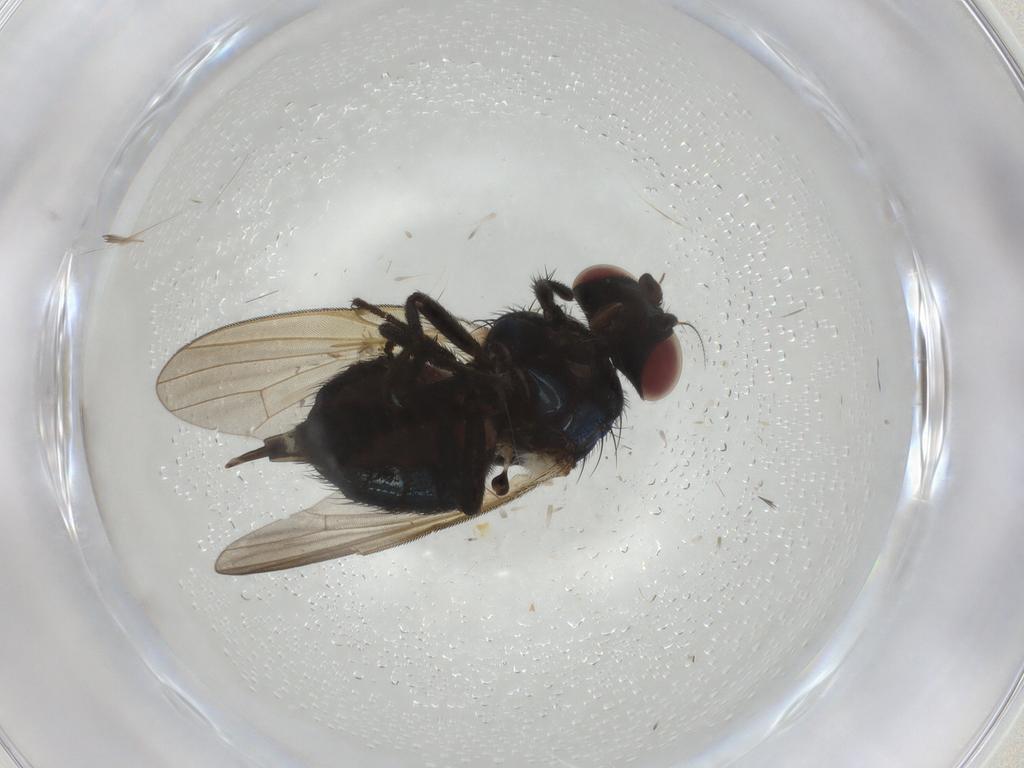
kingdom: Animalia
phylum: Arthropoda
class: Insecta
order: Diptera
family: Lonchaeidae
